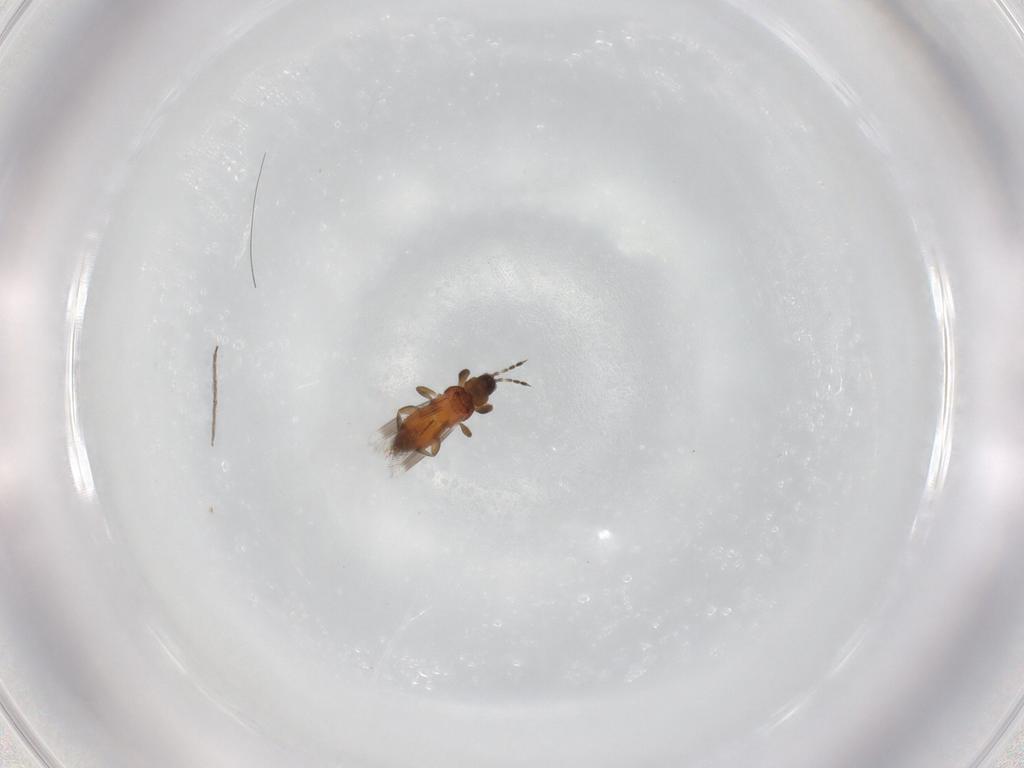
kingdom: Animalia
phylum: Arthropoda
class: Insecta
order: Thysanoptera
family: Aeolothripidae
